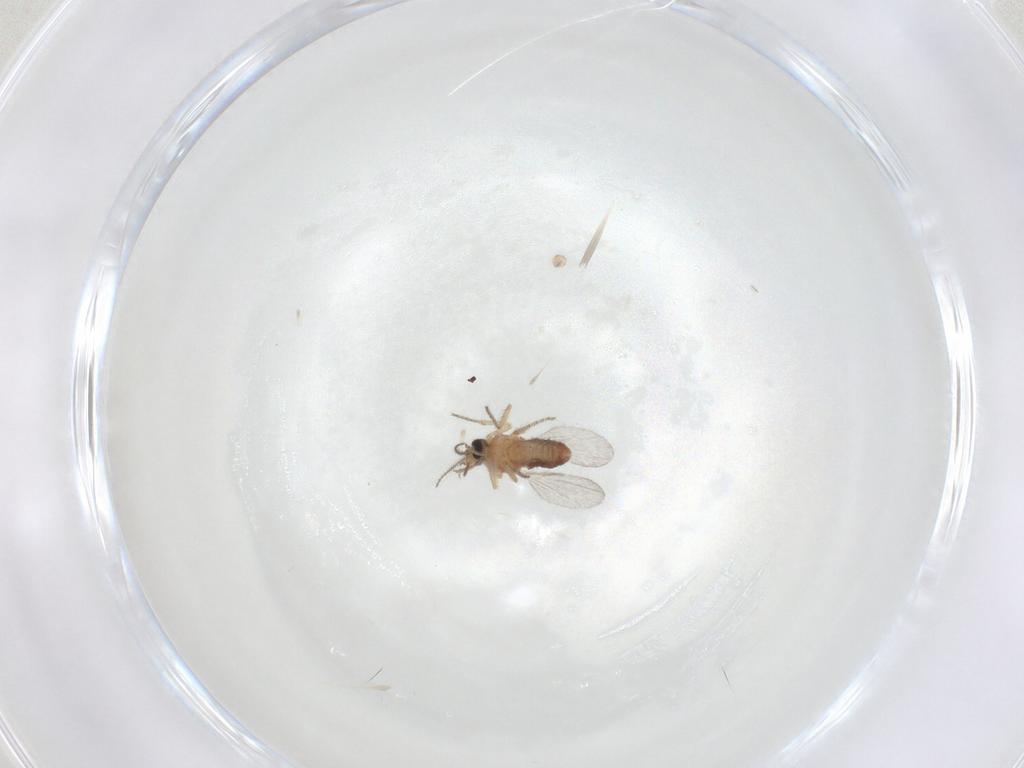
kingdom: Animalia
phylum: Arthropoda
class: Insecta
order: Diptera
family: Ceratopogonidae
